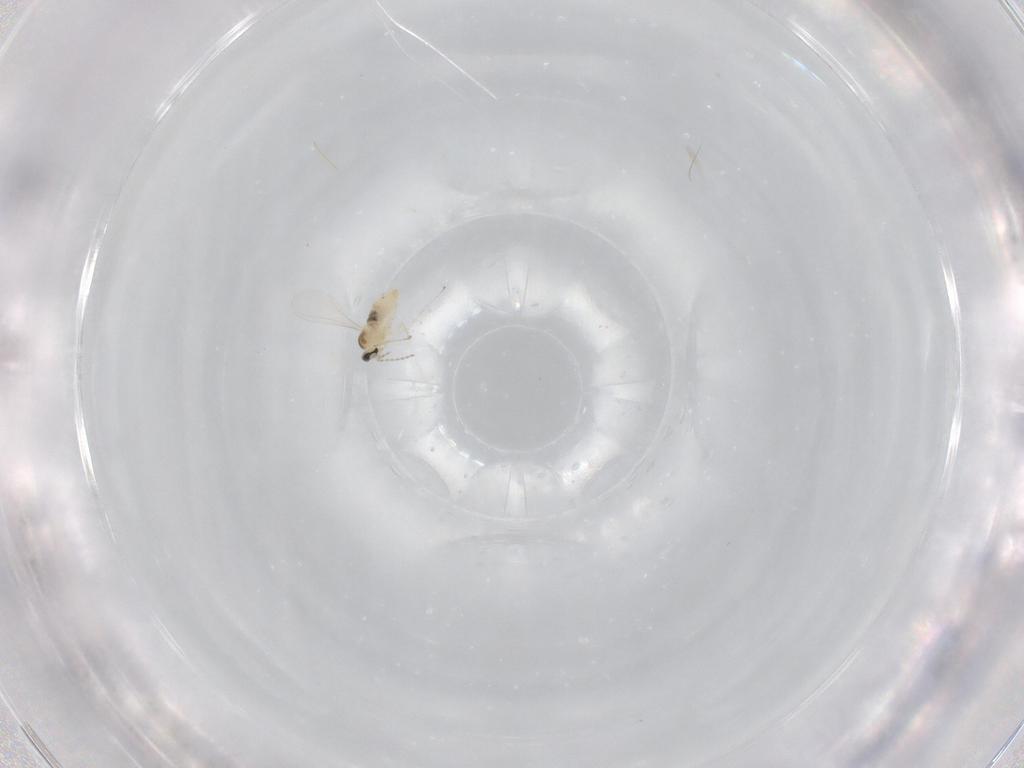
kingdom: Animalia
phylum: Arthropoda
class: Insecta
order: Diptera
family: Cecidomyiidae
